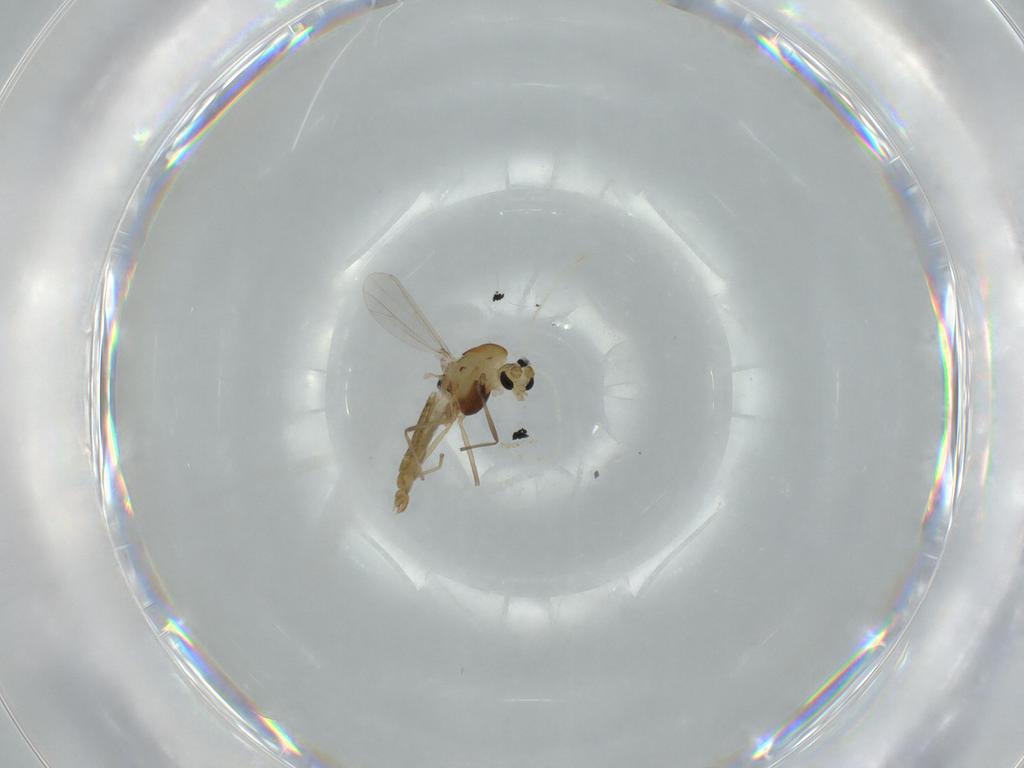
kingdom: Animalia
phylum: Arthropoda
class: Insecta
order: Diptera
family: Chironomidae
